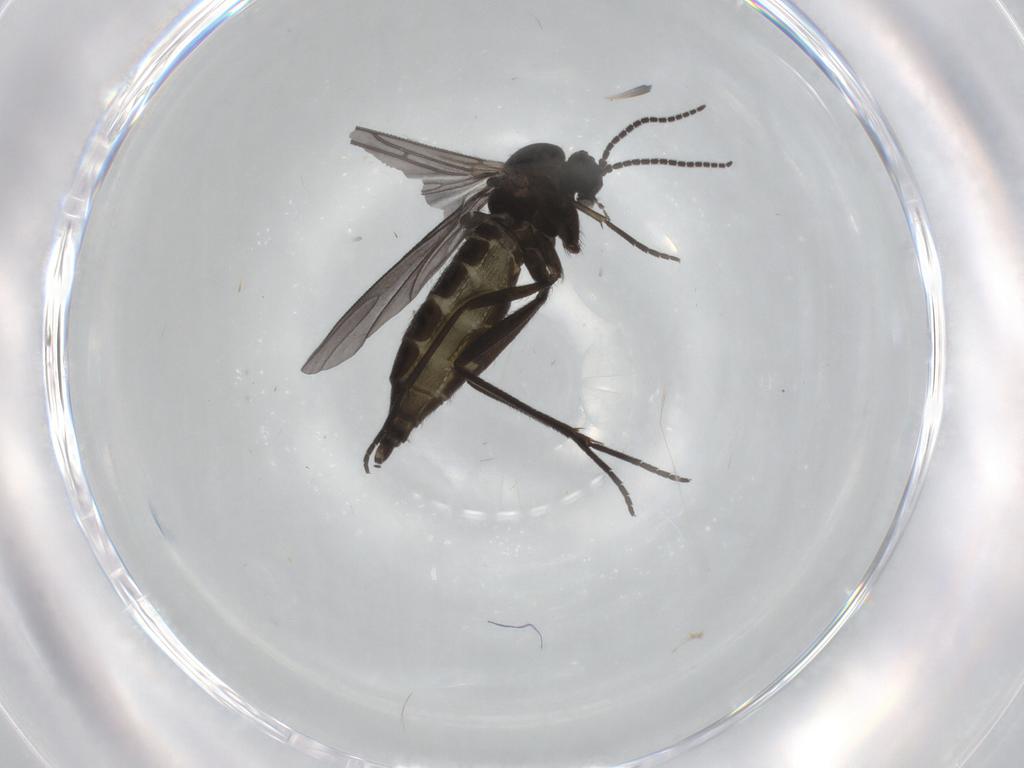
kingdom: Animalia
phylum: Arthropoda
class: Insecta
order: Diptera
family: Sciaridae
